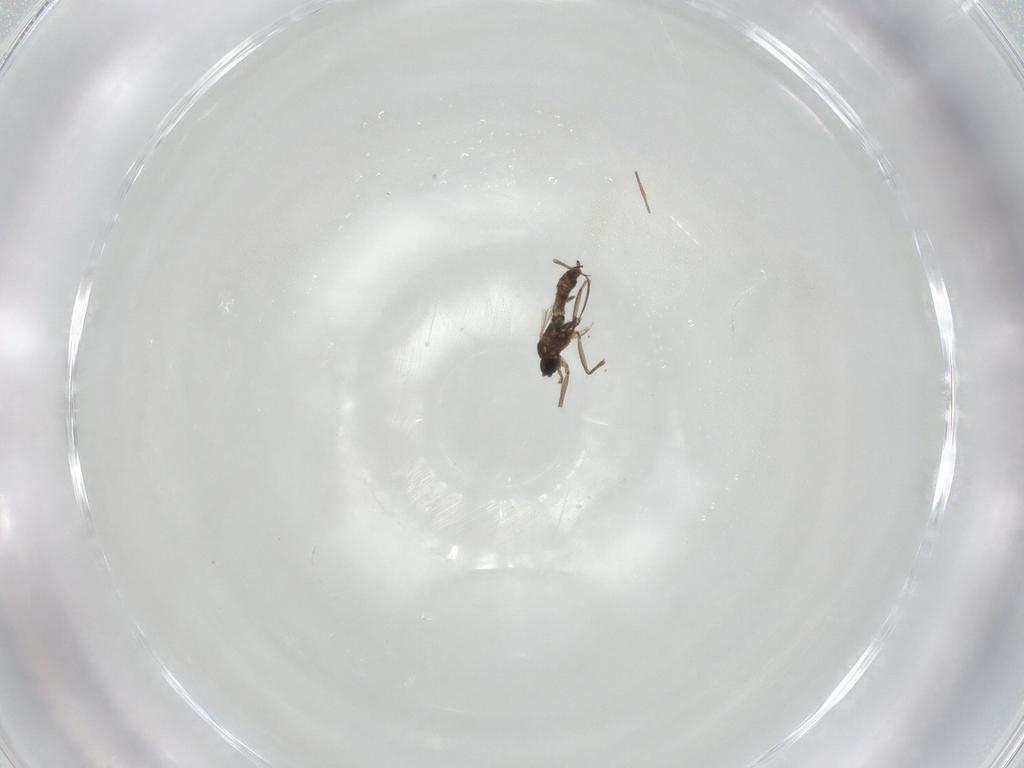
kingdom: Animalia
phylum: Arthropoda
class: Insecta
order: Diptera
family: Sciaridae
